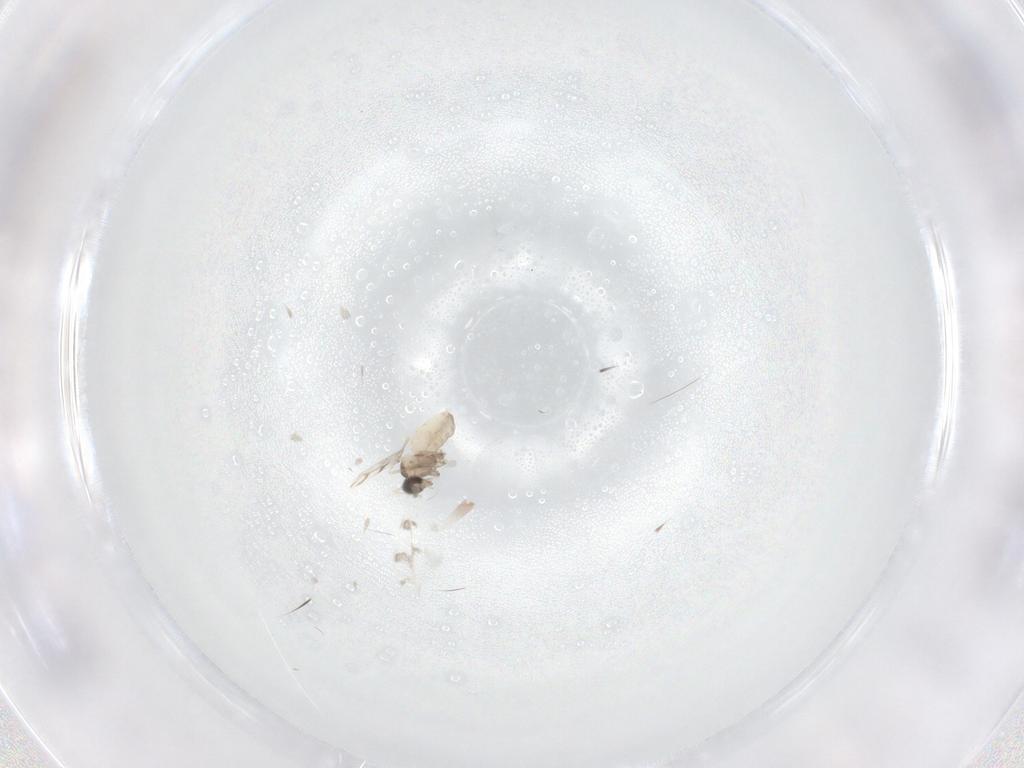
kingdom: Animalia
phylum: Arthropoda
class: Insecta
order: Diptera
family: Cecidomyiidae
